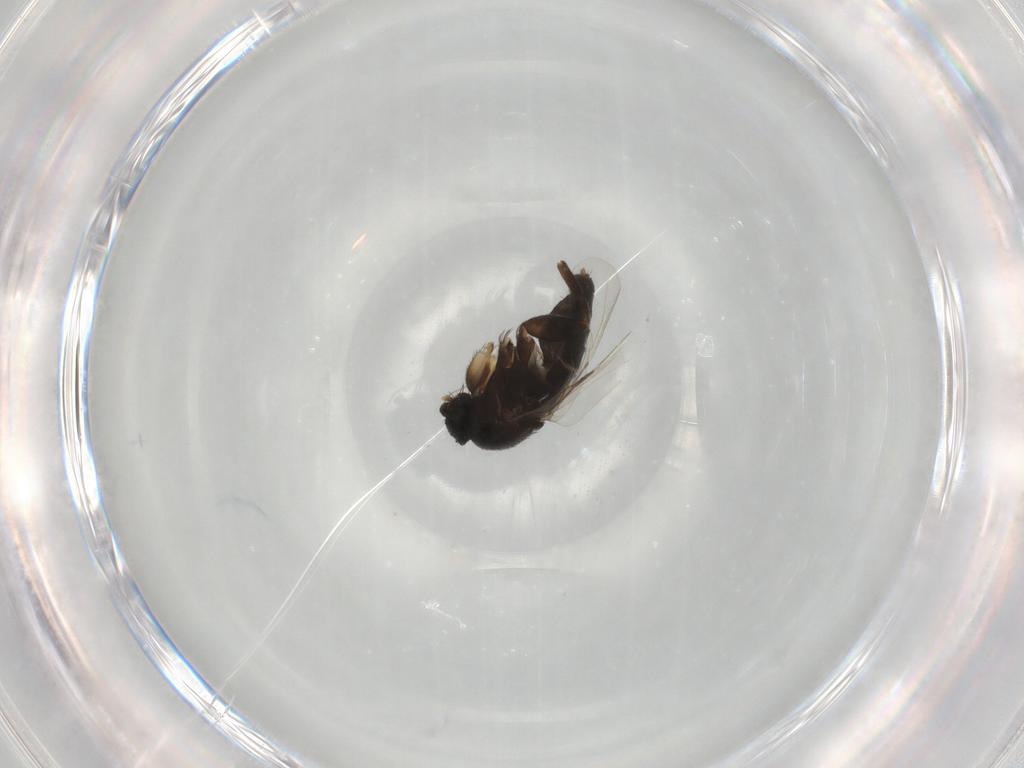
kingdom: Animalia
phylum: Arthropoda
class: Insecta
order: Diptera
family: Phoridae
